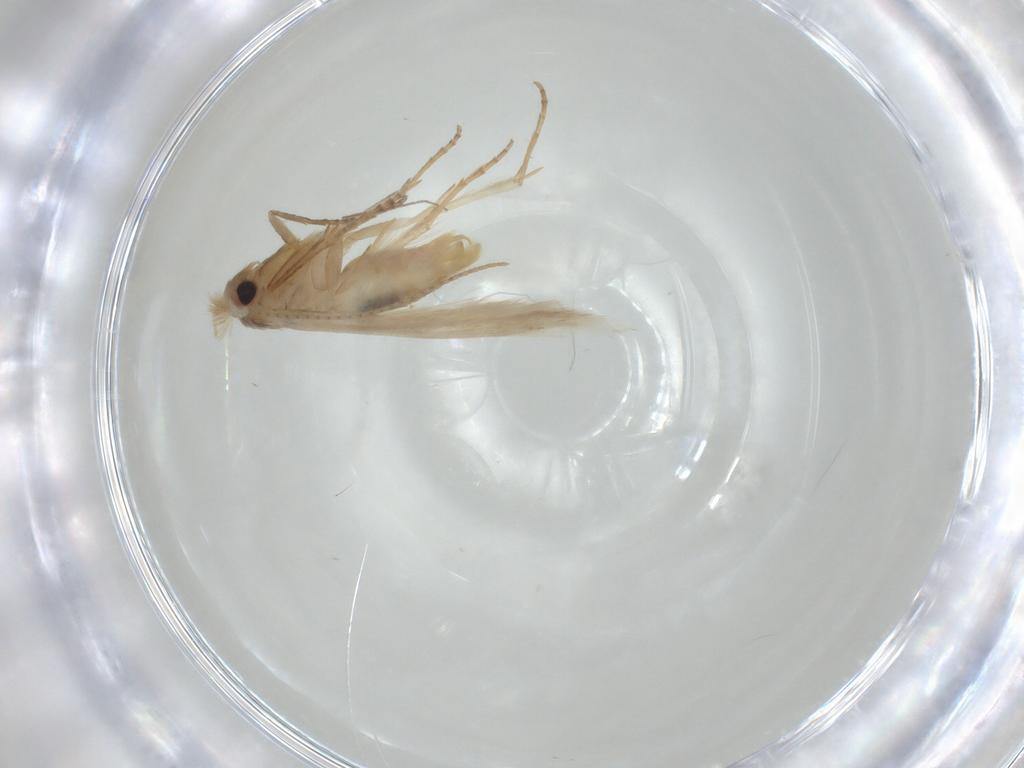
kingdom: Animalia
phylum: Arthropoda
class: Insecta
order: Lepidoptera
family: Bucculatricidae
